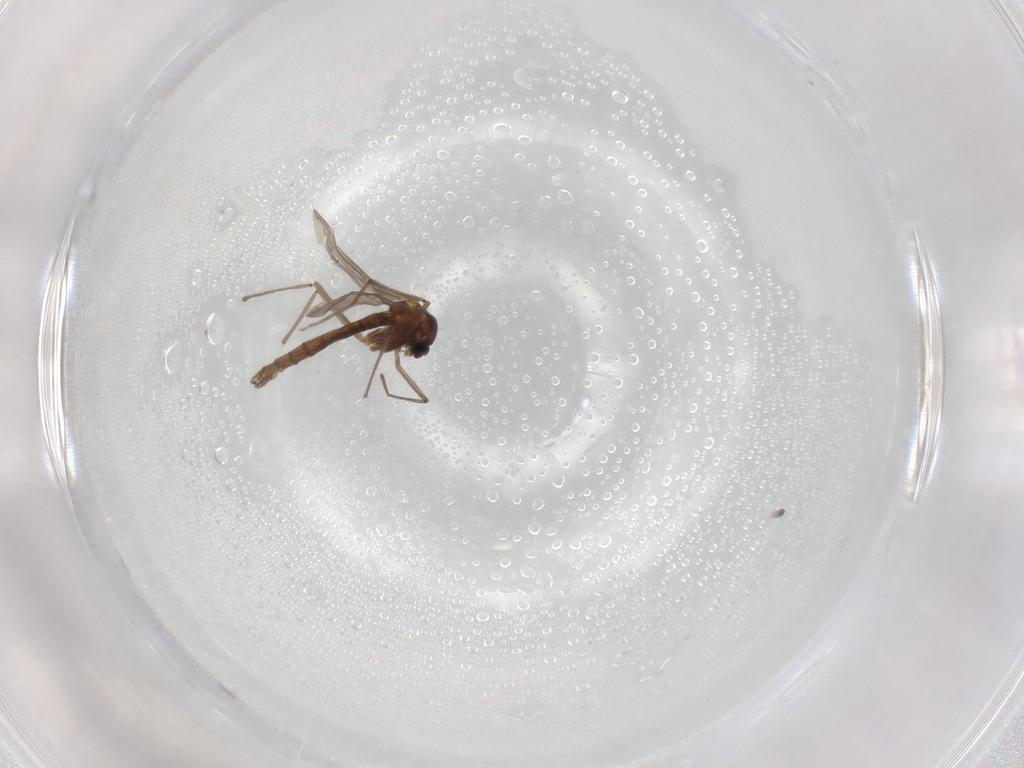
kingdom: Animalia
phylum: Arthropoda
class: Insecta
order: Diptera
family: Chironomidae
